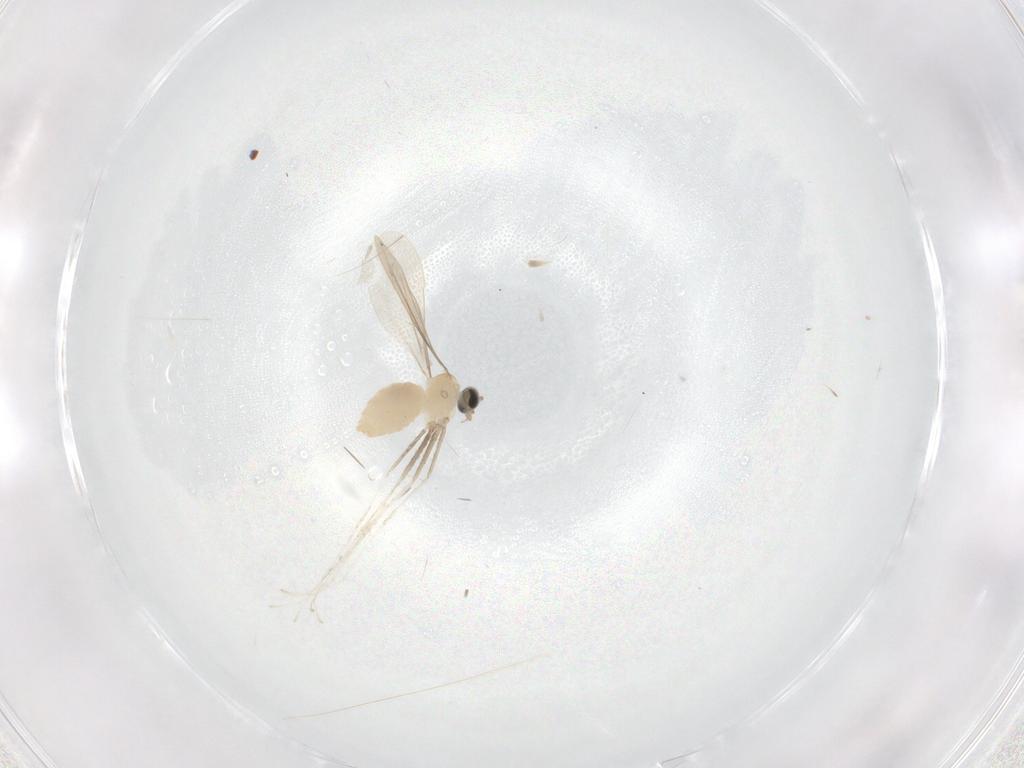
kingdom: Animalia
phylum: Arthropoda
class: Insecta
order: Diptera
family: Cecidomyiidae
